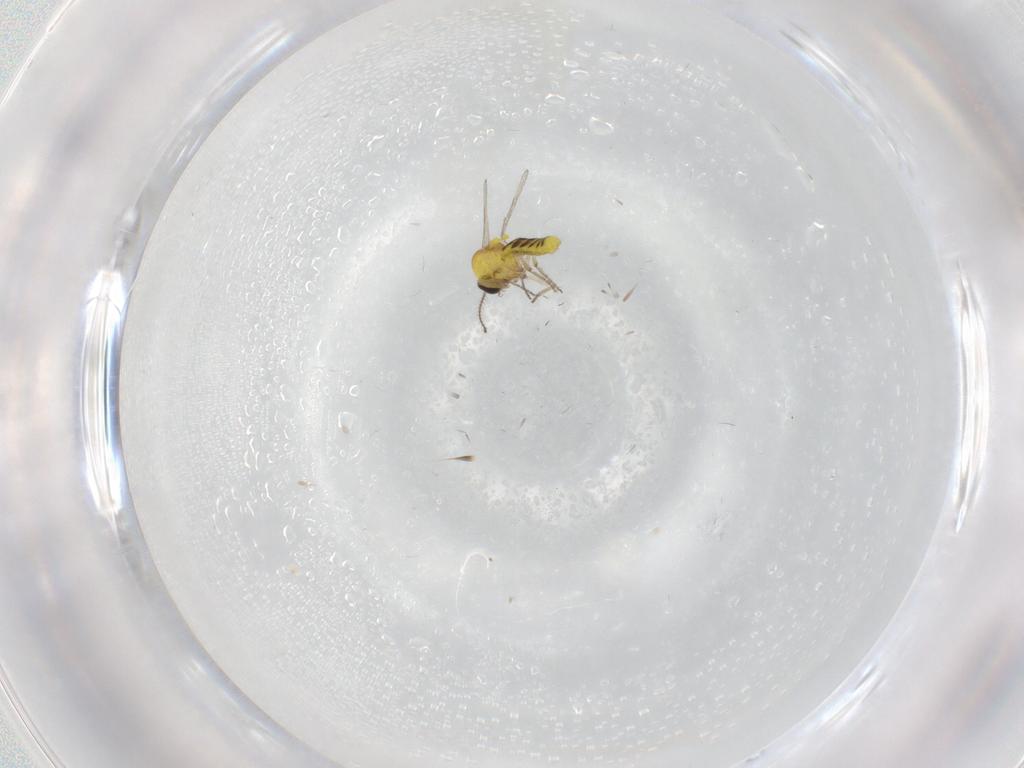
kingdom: Animalia
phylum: Arthropoda
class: Insecta
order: Diptera
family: Ceratopogonidae
